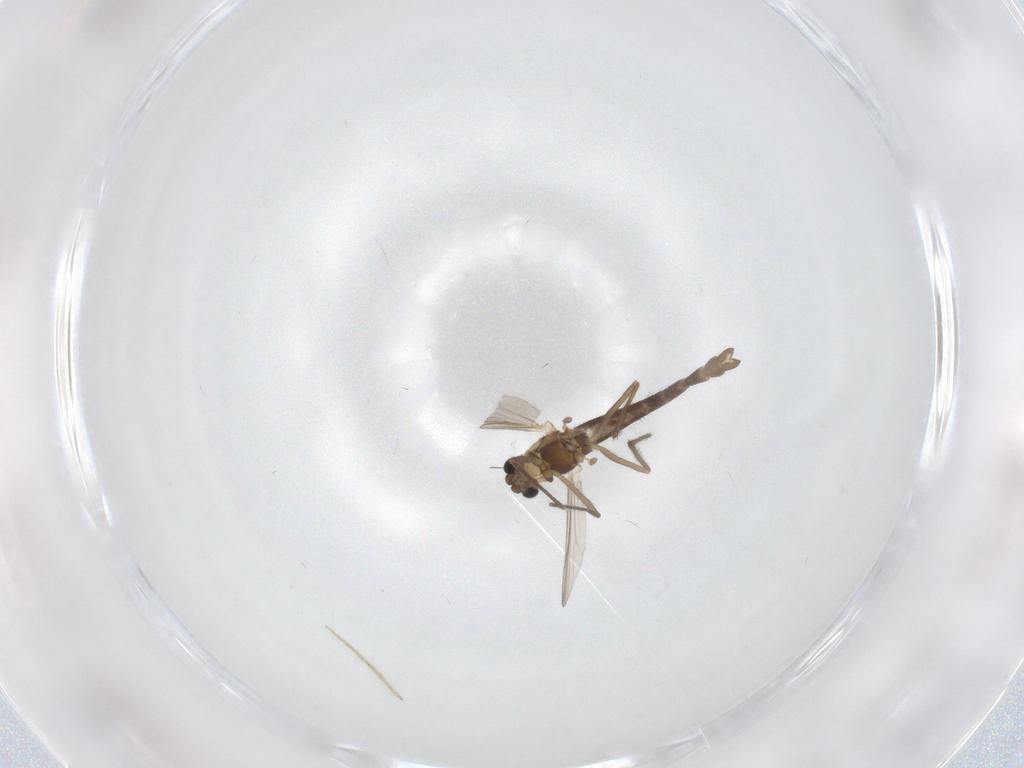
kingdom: Animalia
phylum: Arthropoda
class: Insecta
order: Diptera
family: Chironomidae
